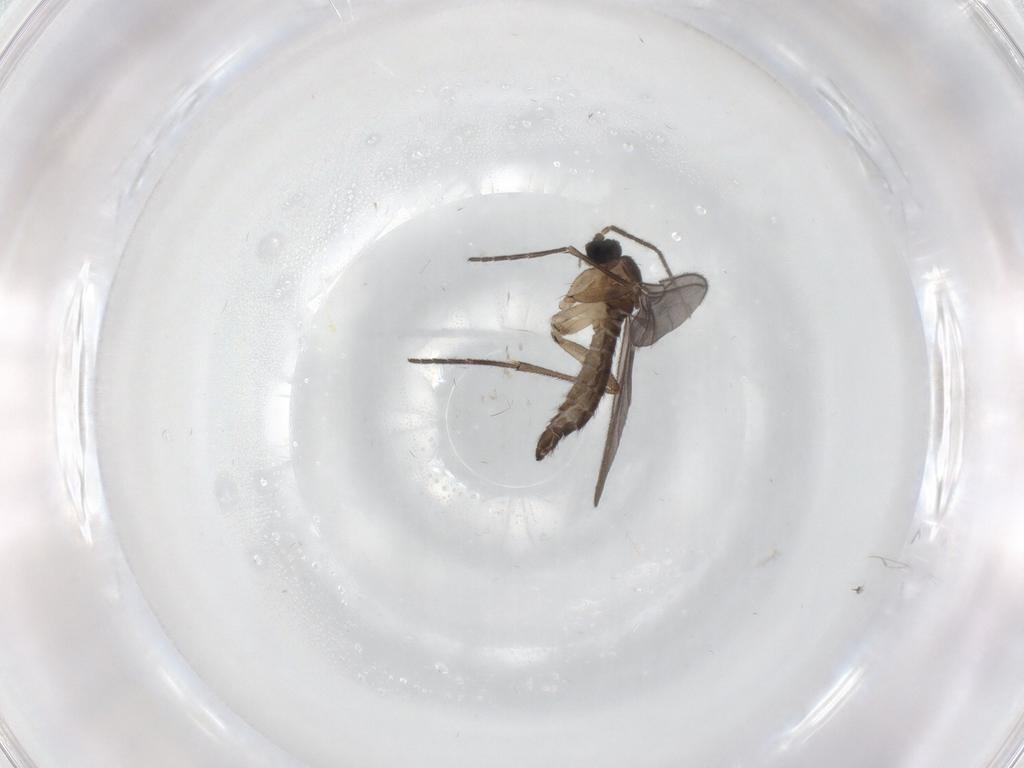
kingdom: Animalia
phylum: Arthropoda
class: Insecta
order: Diptera
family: Sciaridae
